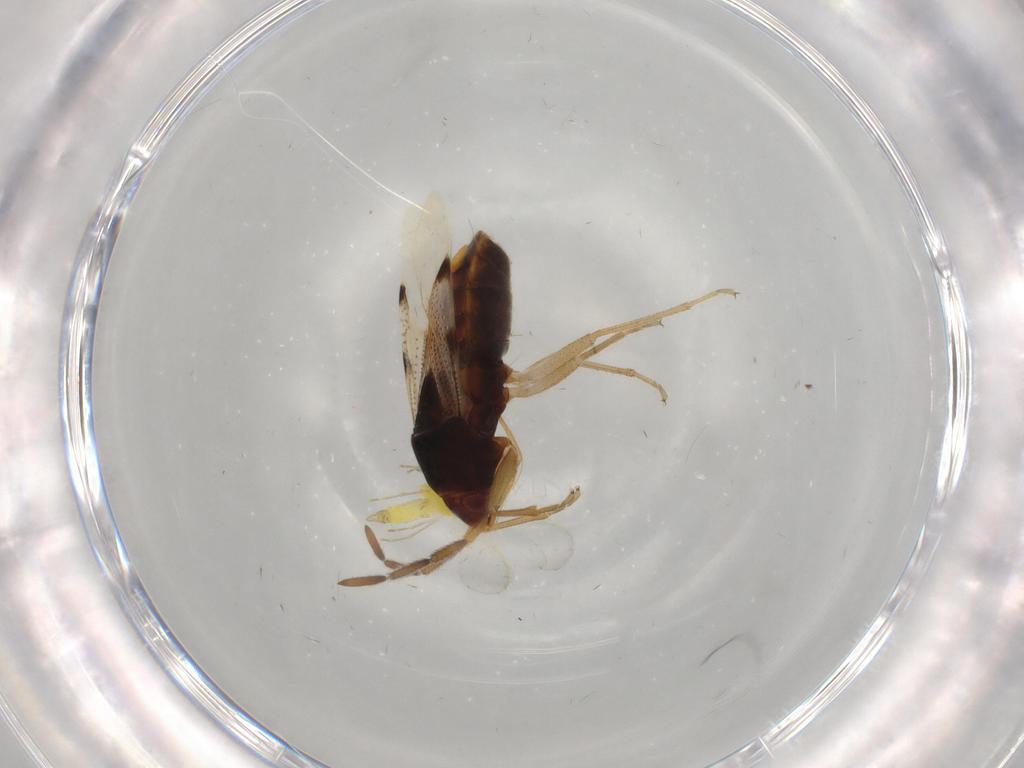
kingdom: Animalia
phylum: Arthropoda
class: Insecta
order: Hemiptera
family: Rhyparochromidae
